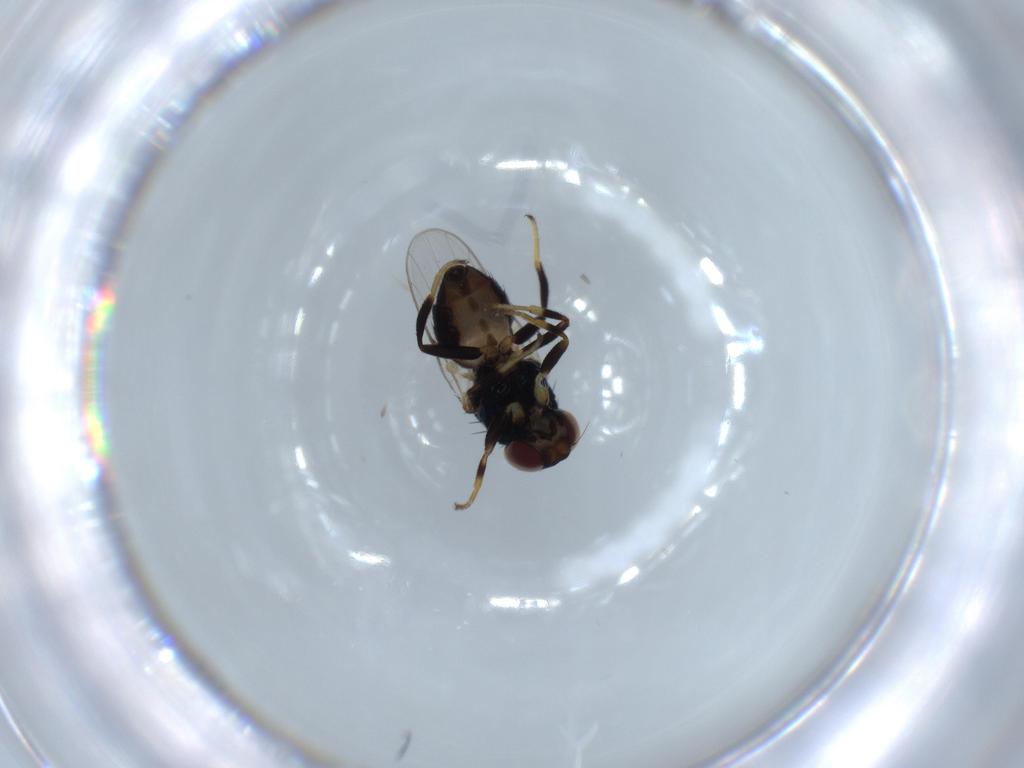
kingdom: Animalia
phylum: Arthropoda
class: Insecta
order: Diptera
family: Chloropidae
